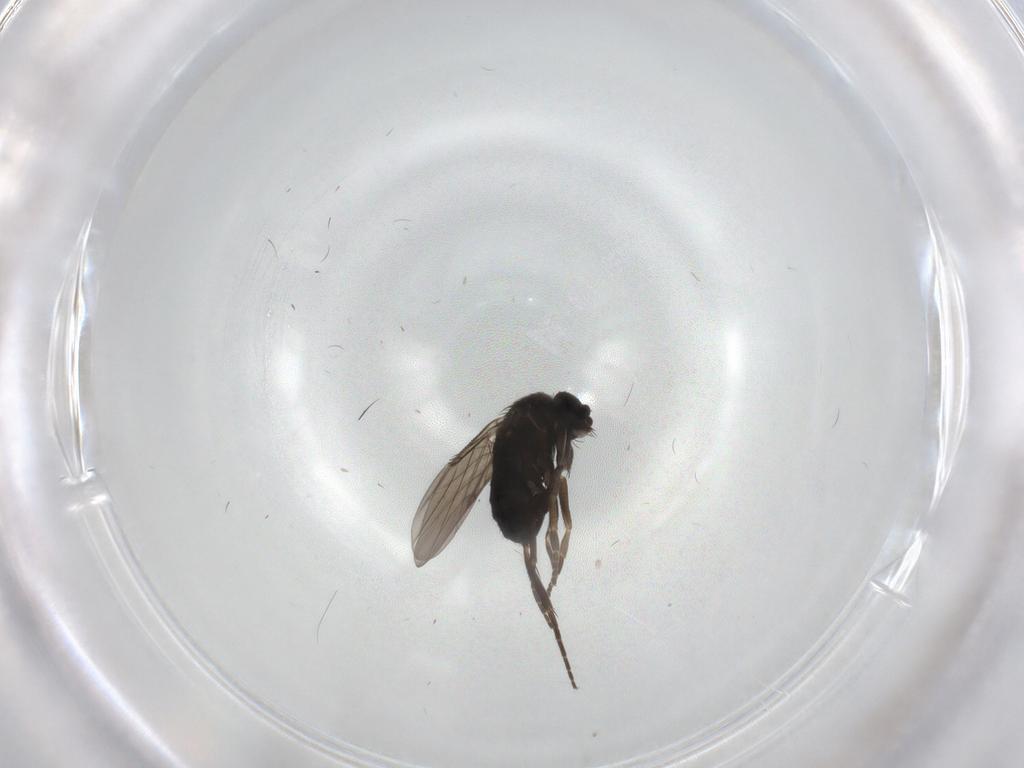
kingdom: Animalia
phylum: Arthropoda
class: Insecta
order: Diptera
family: Phoridae
